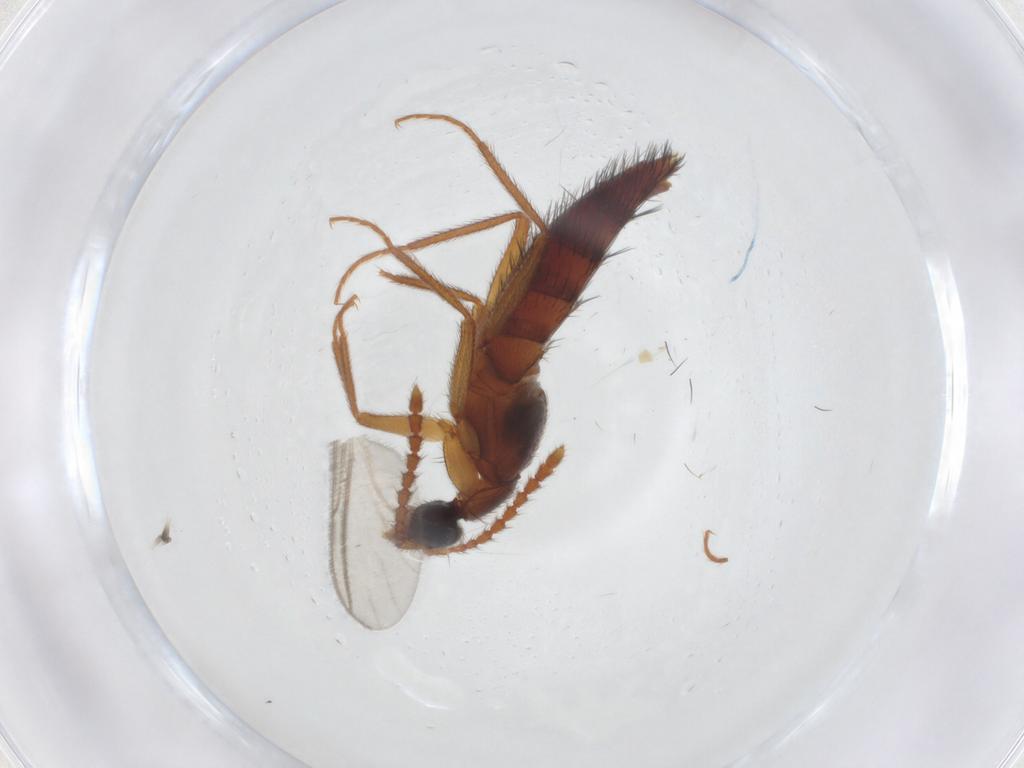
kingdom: Animalia
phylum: Arthropoda
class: Insecta
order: Coleoptera
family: Staphylinidae
